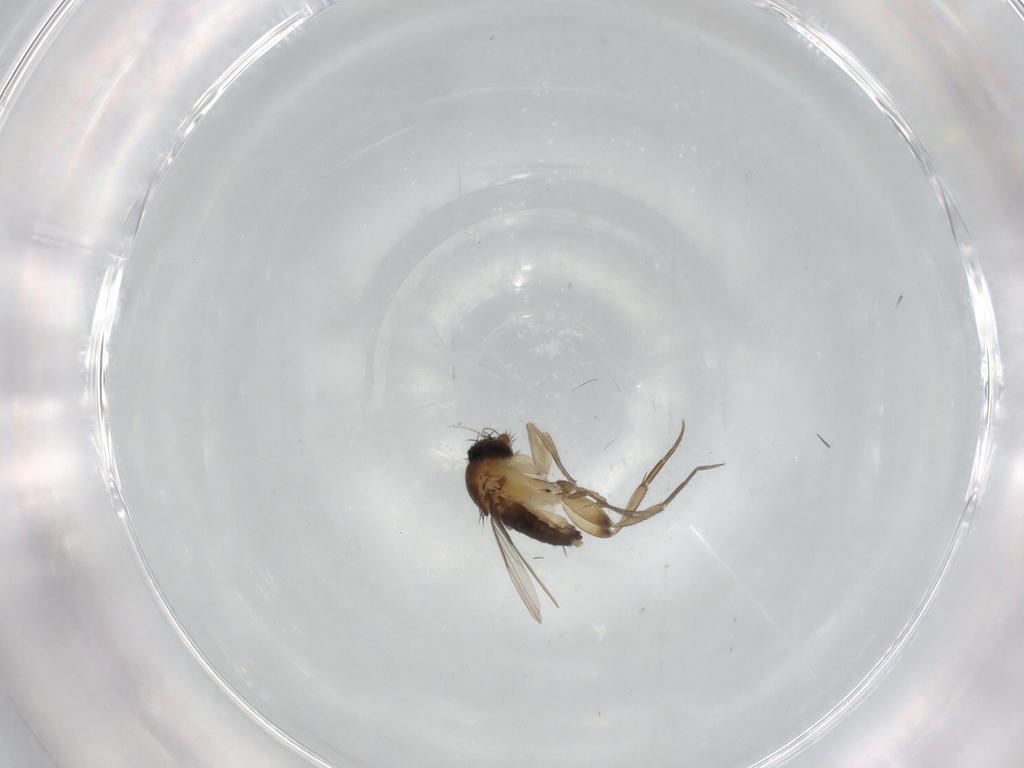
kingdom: Animalia
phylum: Arthropoda
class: Insecta
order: Diptera
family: Phoridae
